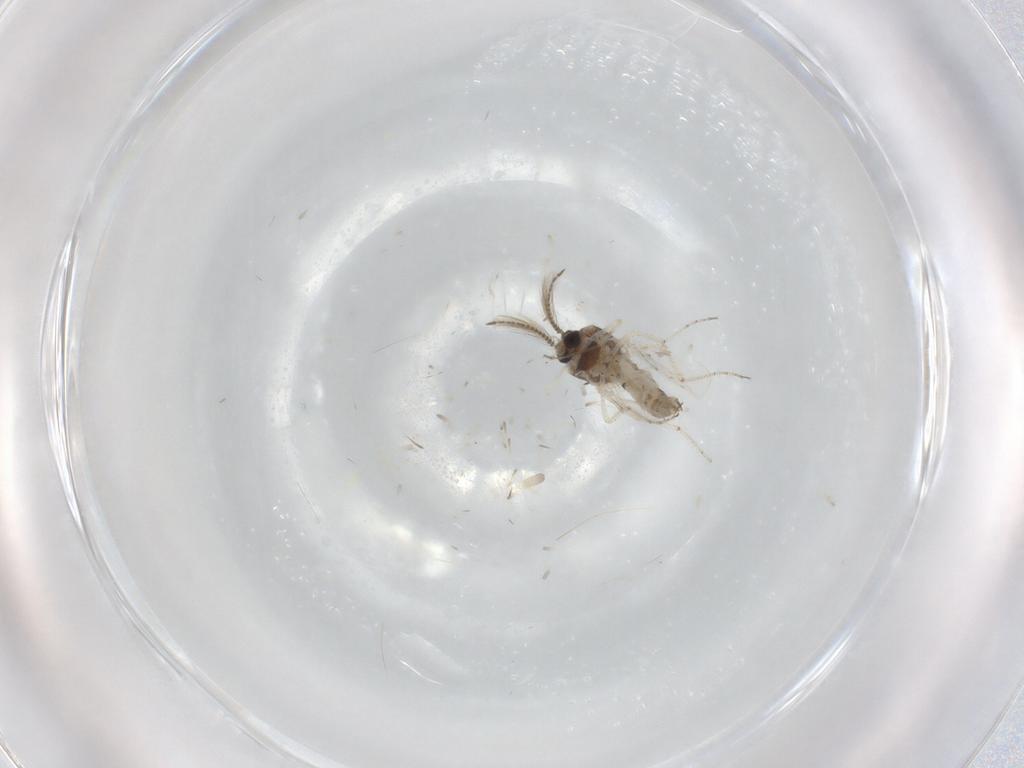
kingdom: Animalia
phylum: Arthropoda
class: Insecta
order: Diptera
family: Ceratopogonidae
